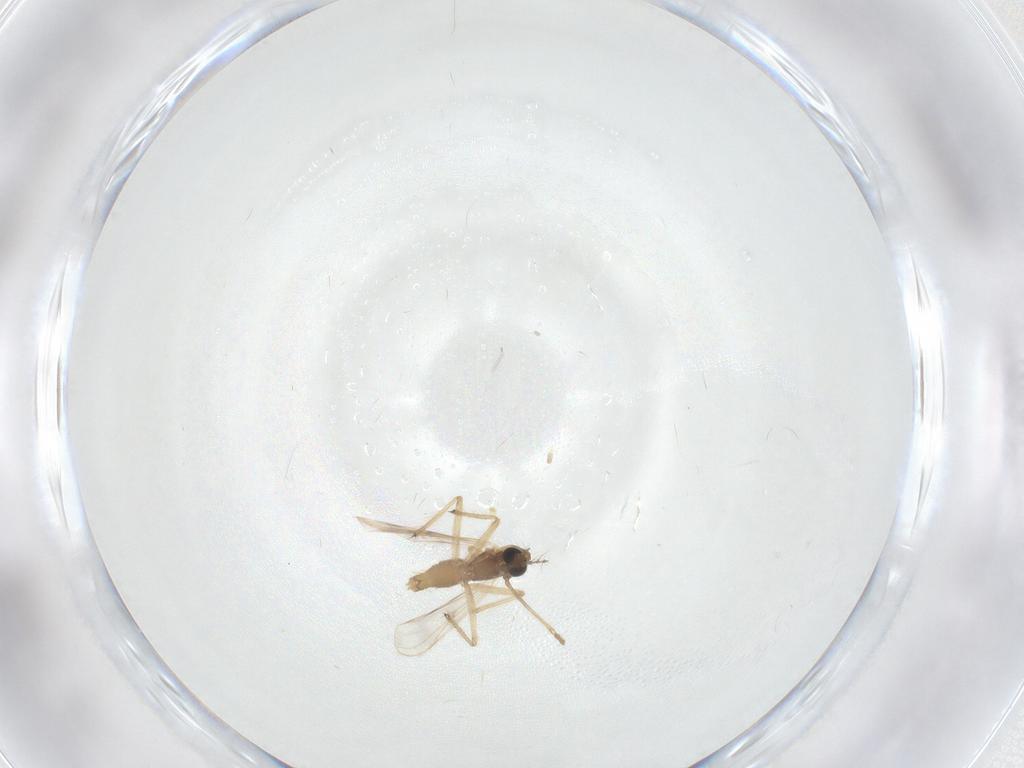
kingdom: Animalia
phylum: Arthropoda
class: Insecta
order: Diptera
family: Chironomidae
